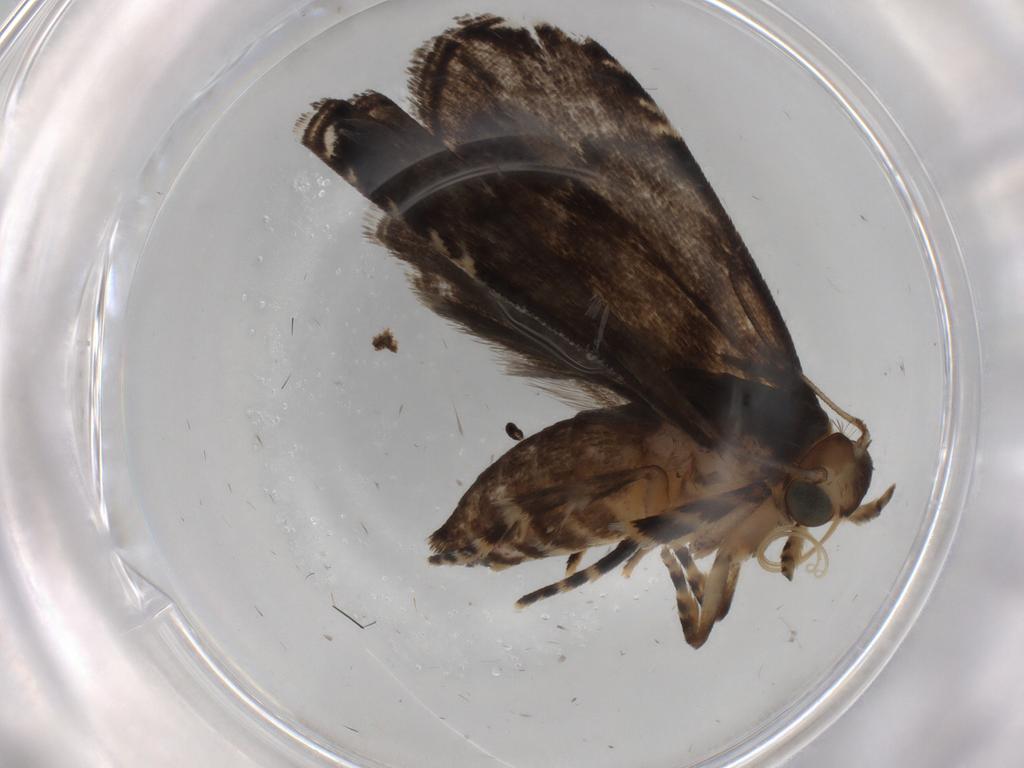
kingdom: Animalia
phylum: Arthropoda
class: Insecta
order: Lepidoptera
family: Immidae
